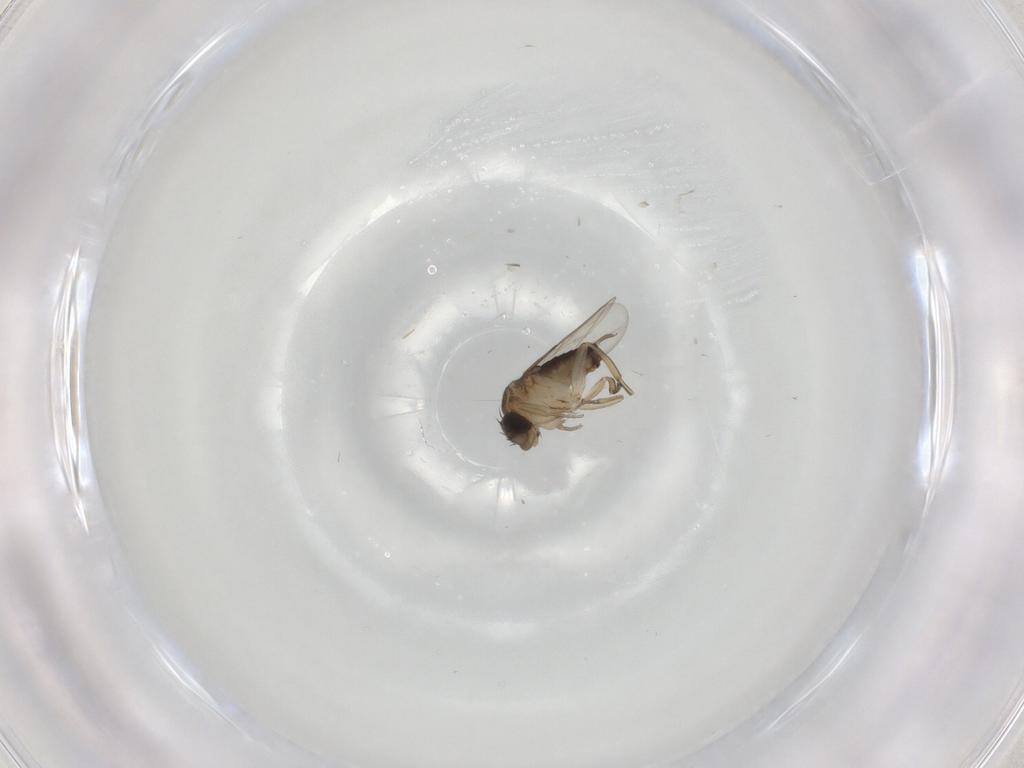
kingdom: Animalia
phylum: Arthropoda
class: Insecta
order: Diptera
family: Phoridae
